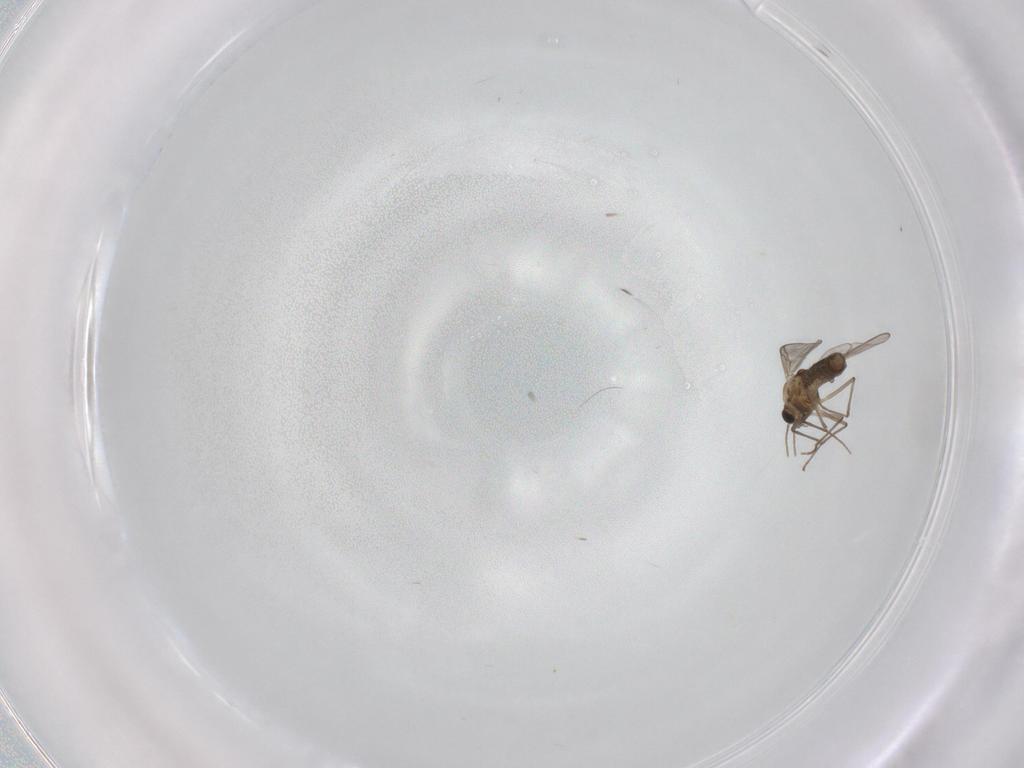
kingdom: Animalia
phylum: Arthropoda
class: Insecta
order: Diptera
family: Chironomidae
